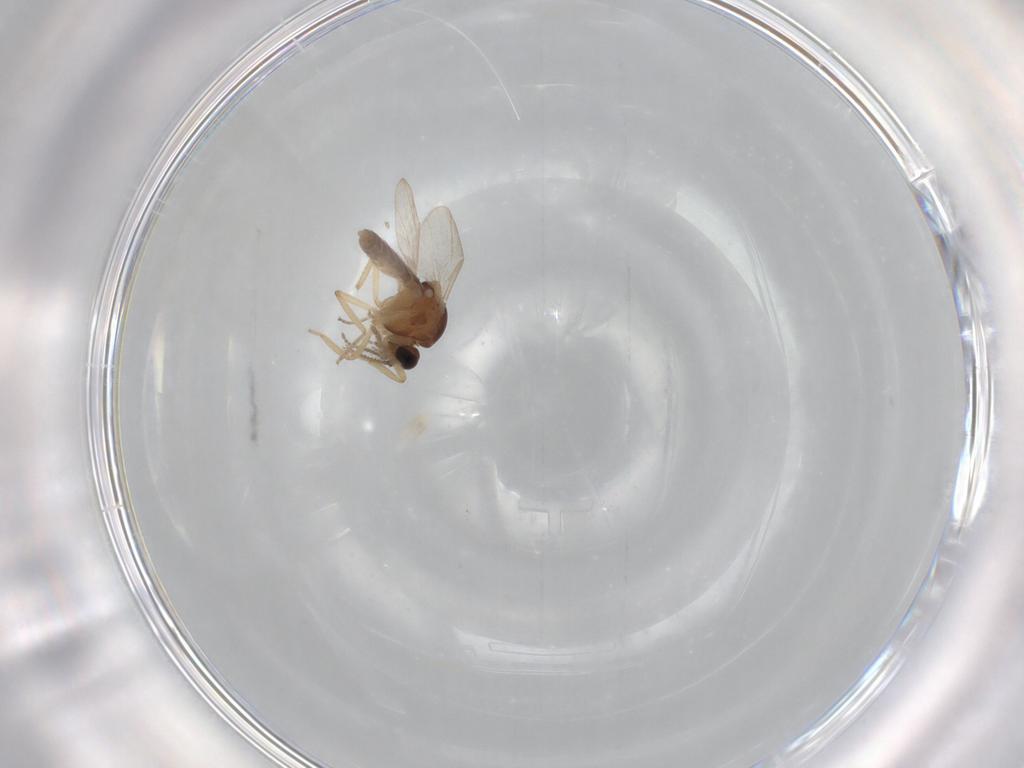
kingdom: Animalia
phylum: Arthropoda
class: Insecta
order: Diptera
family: Ceratopogonidae
